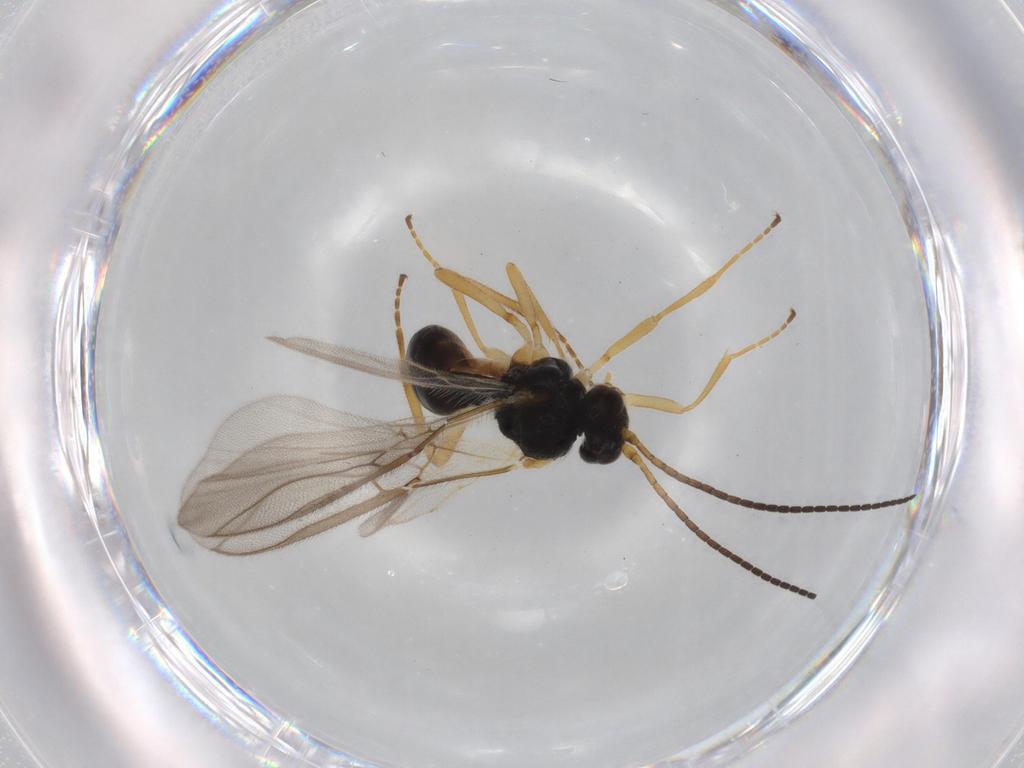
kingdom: Animalia
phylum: Arthropoda
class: Insecta
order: Hymenoptera
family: Braconidae
